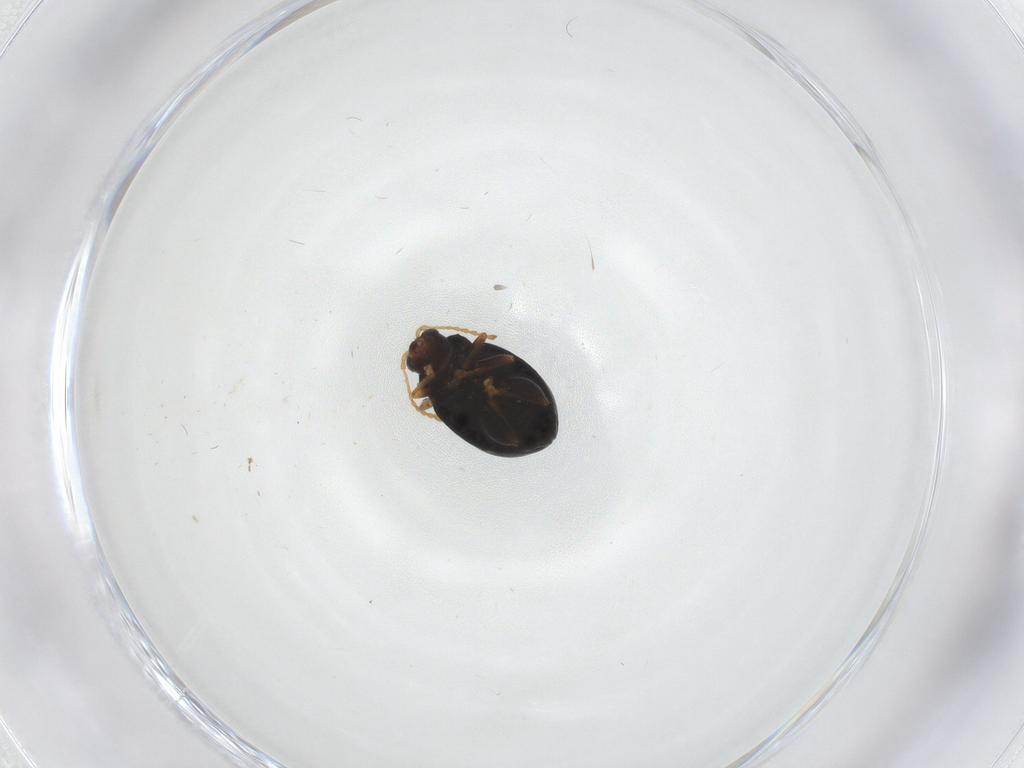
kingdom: Animalia
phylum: Arthropoda
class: Insecta
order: Coleoptera
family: Chrysomelidae
